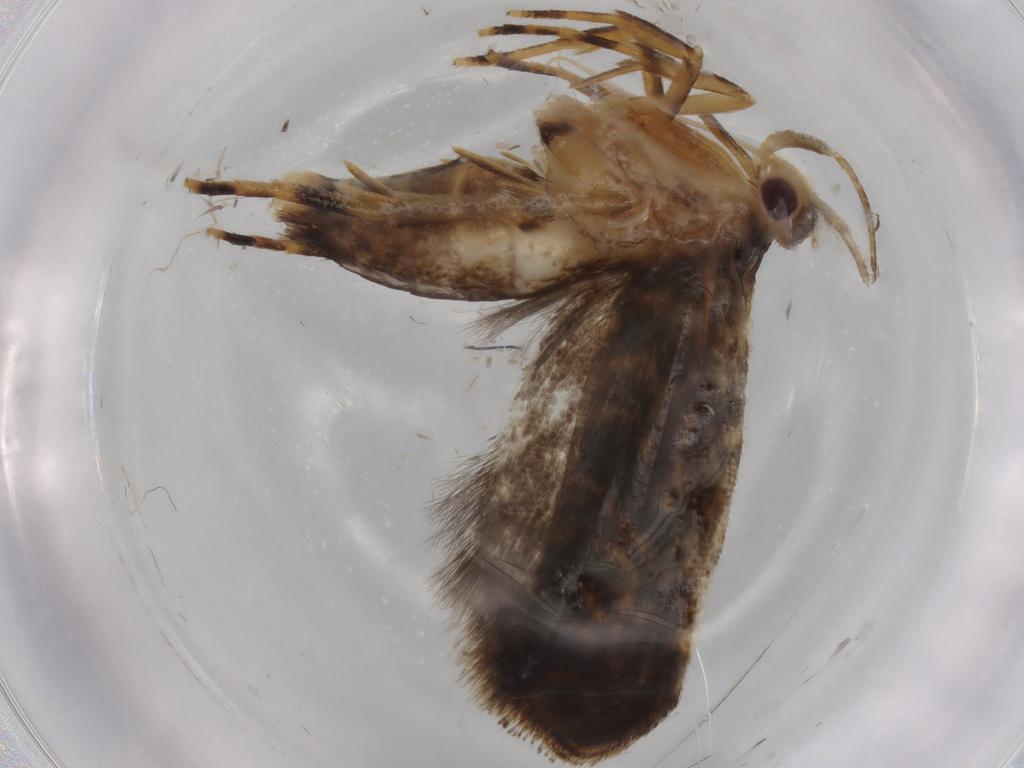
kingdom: Animalia
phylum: Arthropoda
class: Insecta
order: Lepidoptera
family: Tineidae
